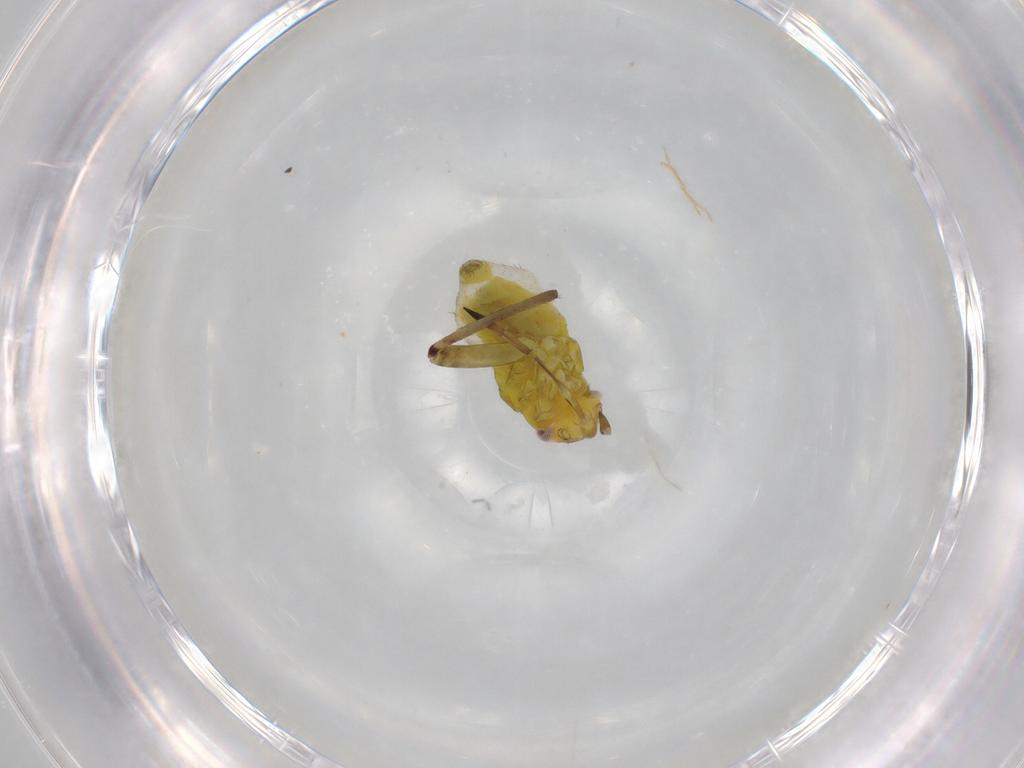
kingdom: Animalia
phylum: Arthropoda
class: Insecta
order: Hemiptera
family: Miridae
